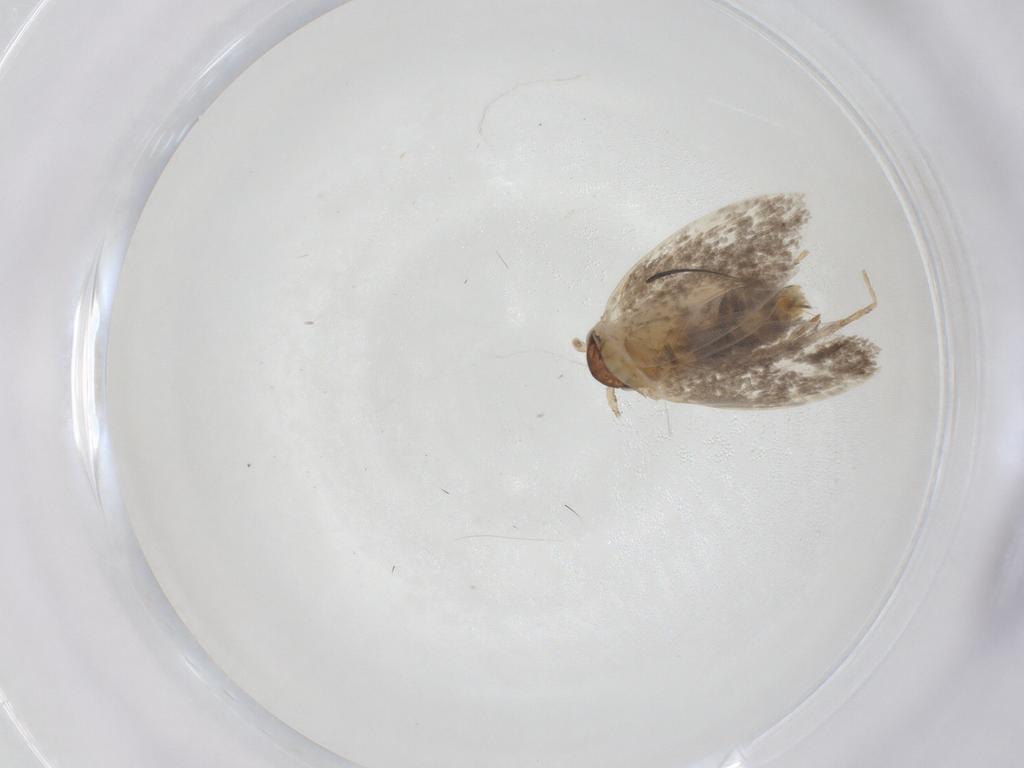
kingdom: Animalia
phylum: Arthropoda
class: Insecta
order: Lepidoptera
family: Dryadaulidae
